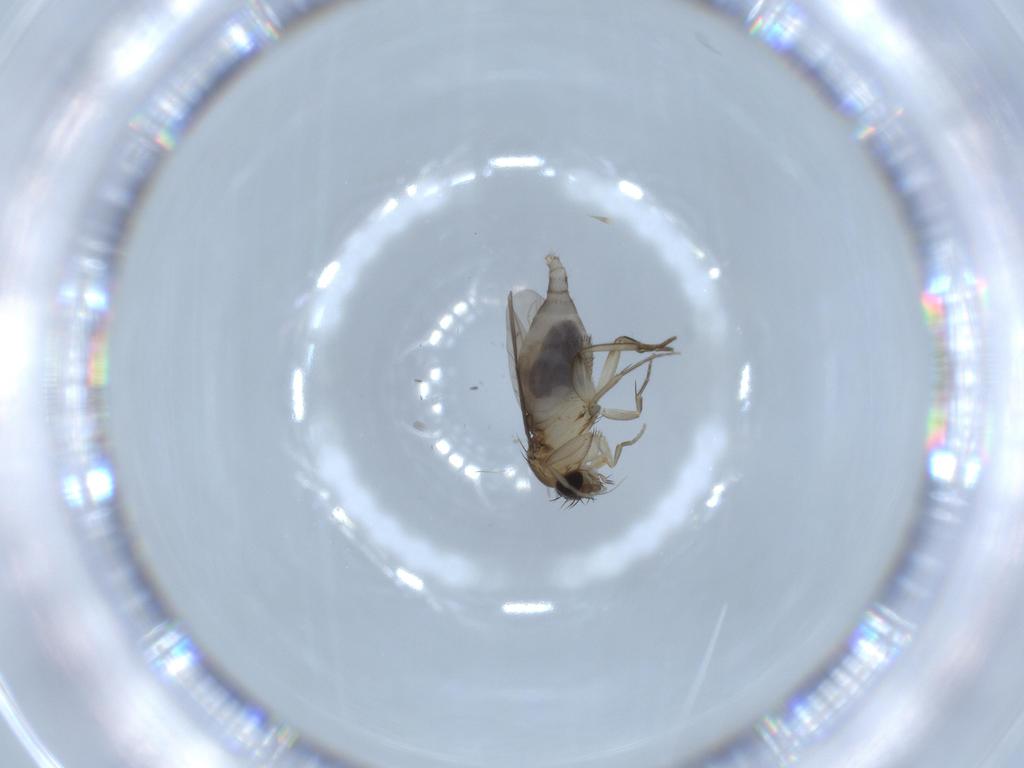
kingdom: Animalia
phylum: Arthropoda
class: Insecta
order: Diptera
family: Phoridae
